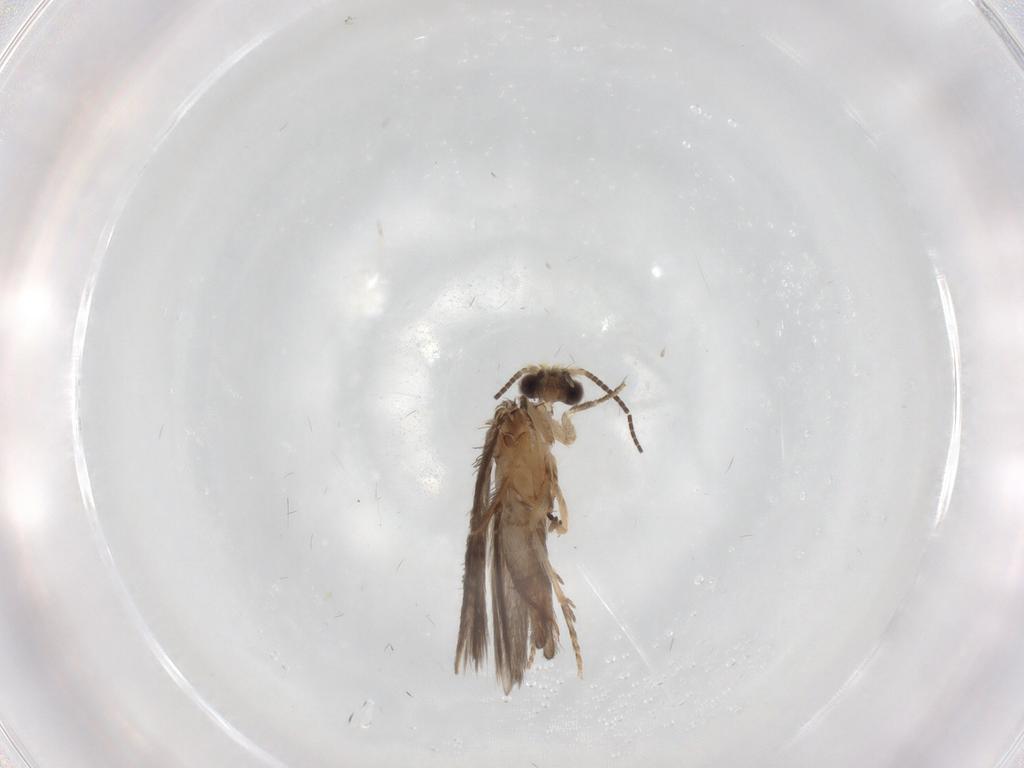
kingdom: Animalia
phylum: Arthropoda
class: Insecta
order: Trichoptera
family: Hydroptilidae
